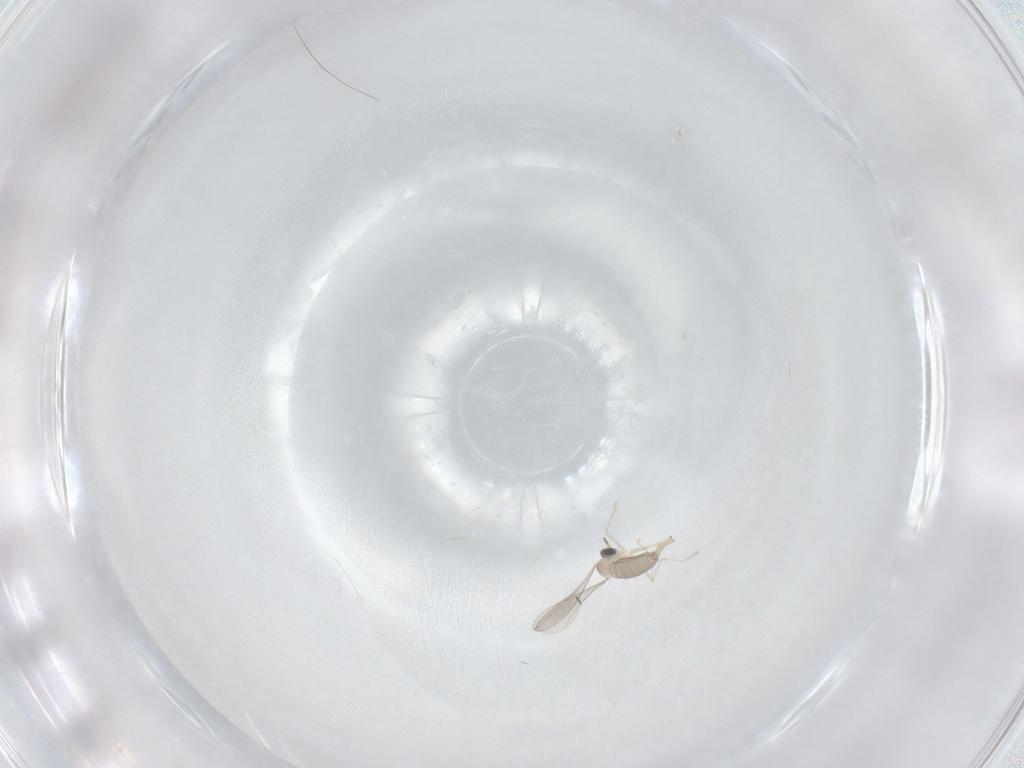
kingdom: Animalia
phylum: Arthropoda
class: Insecta
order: Diptera
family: Cecidomyiidae
